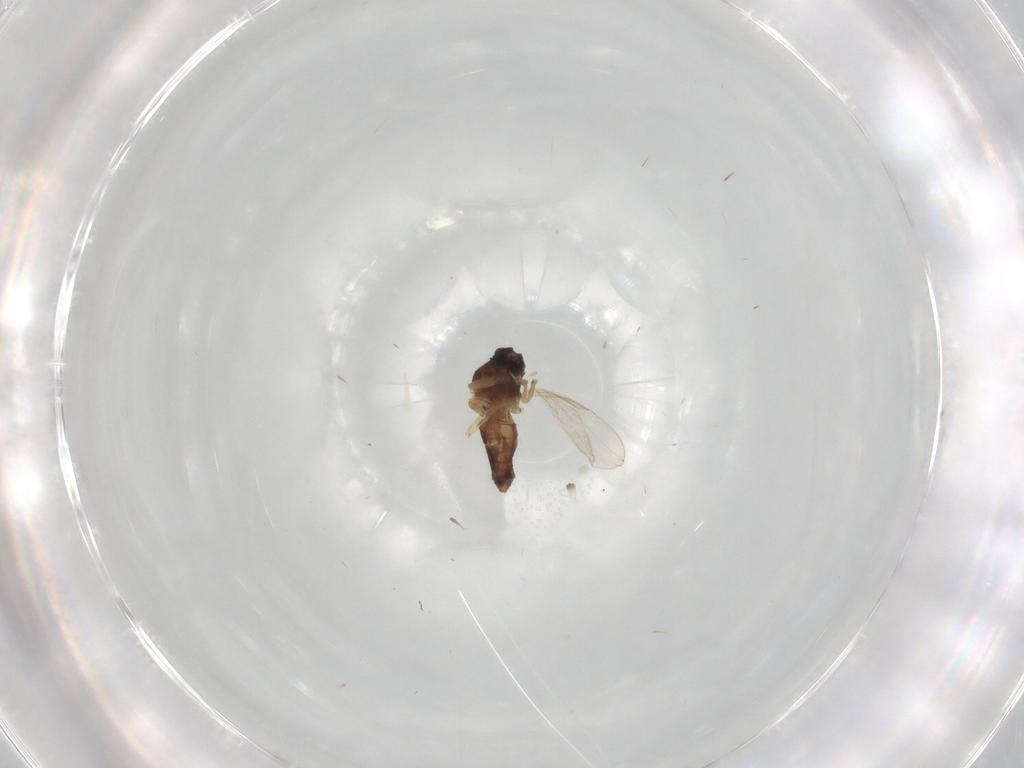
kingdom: Animalia
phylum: Arthropoda
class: Insecta
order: Diptera
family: Ceratopogonidae
